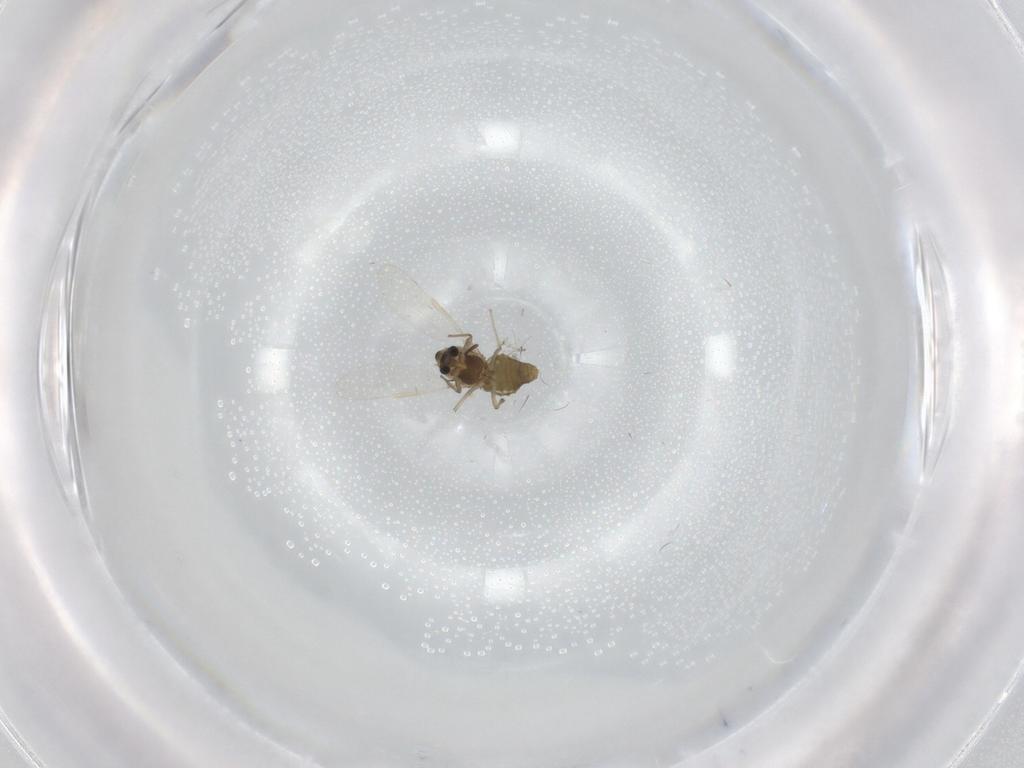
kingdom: Animalia
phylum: Arthropoda
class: Insecta
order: Diptera
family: Chironomidae
